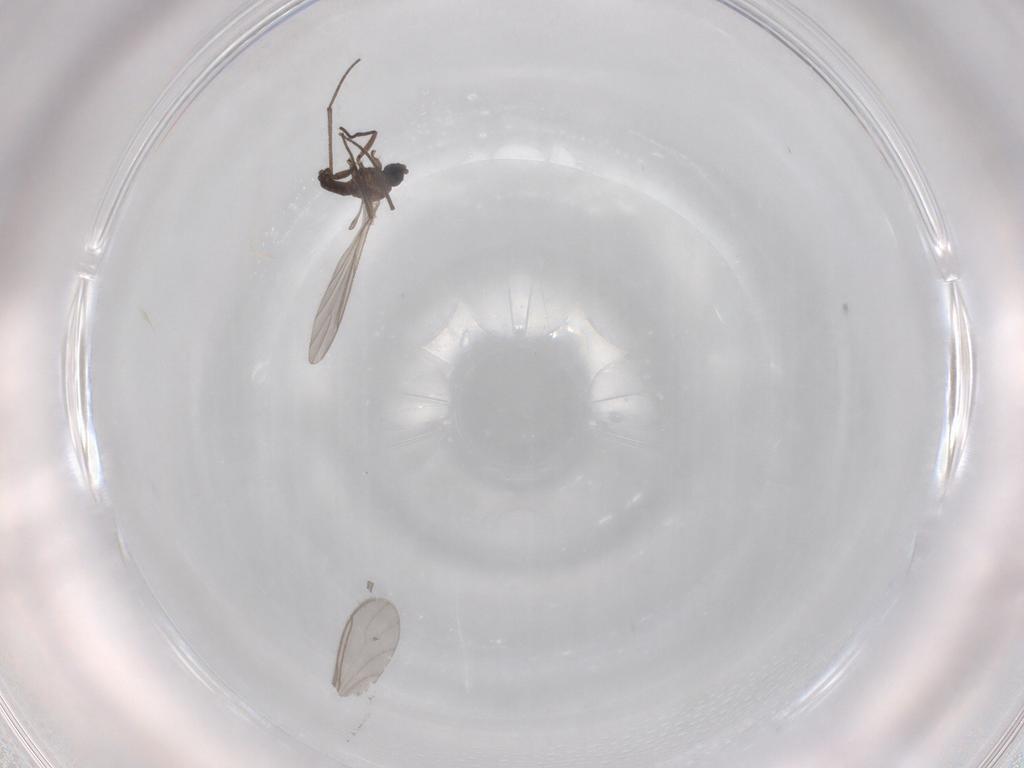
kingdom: Animalia
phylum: Arthropoda
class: Insecta
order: Diptera
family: Sciaridae
